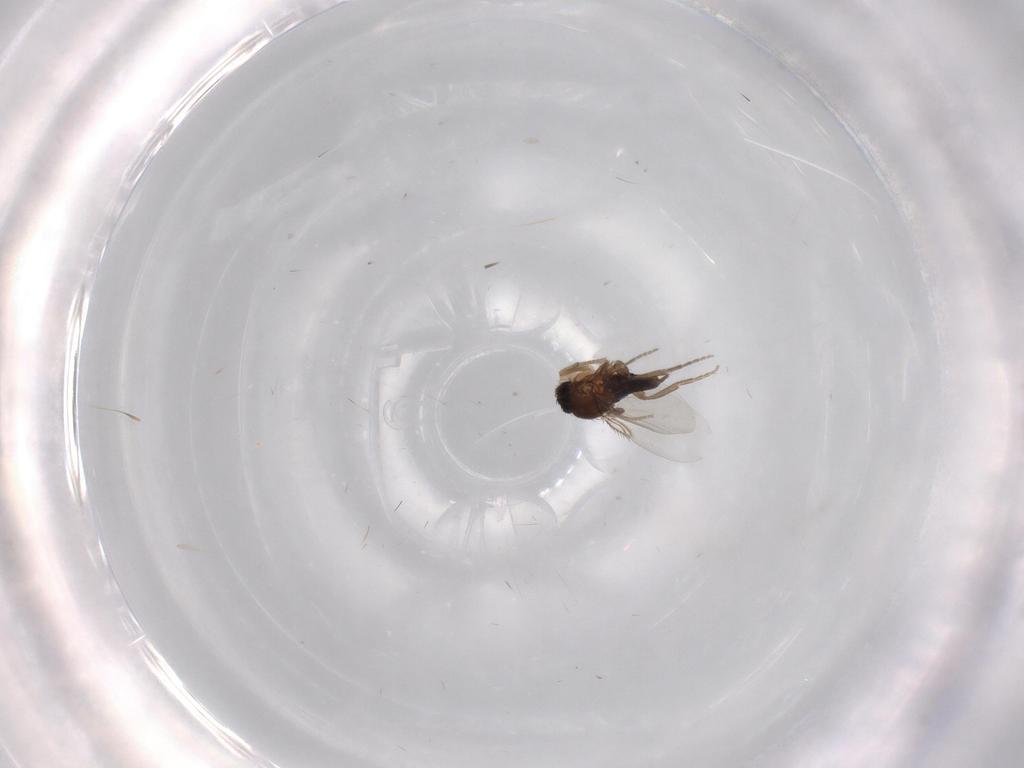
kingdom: Animalia
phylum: Arthropoda
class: Insecta
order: Diptera
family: Phoridae
